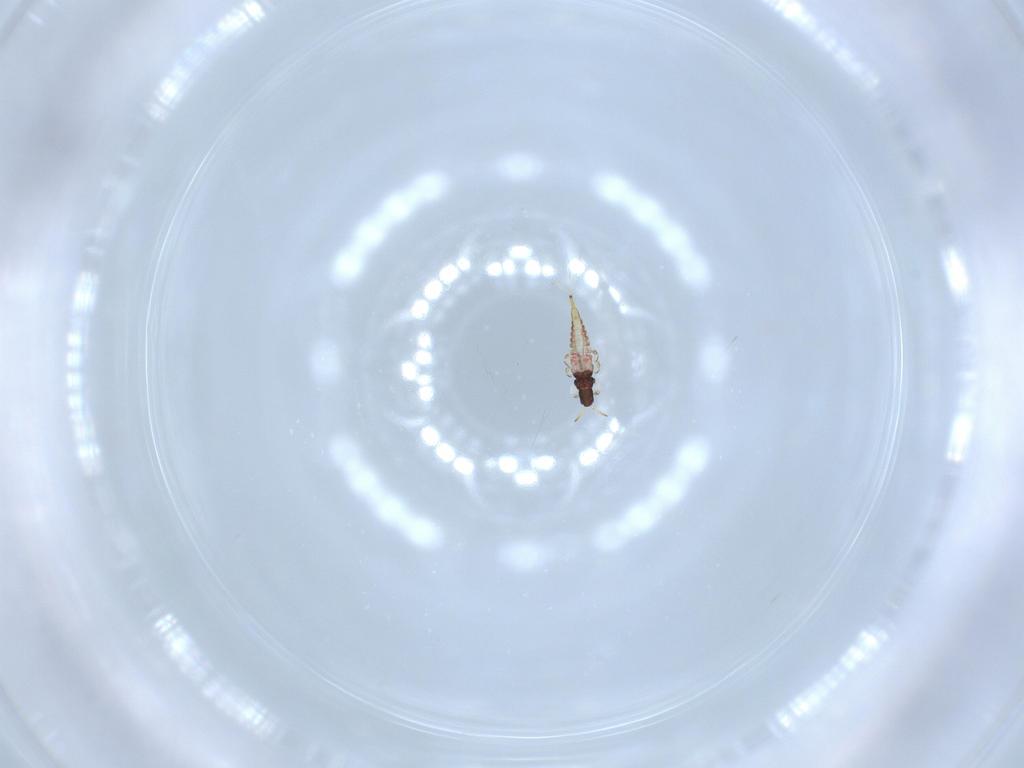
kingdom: Animalia
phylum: Arthropoda
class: Insecta
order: Thysanoptera
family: Phlaeothripidae
